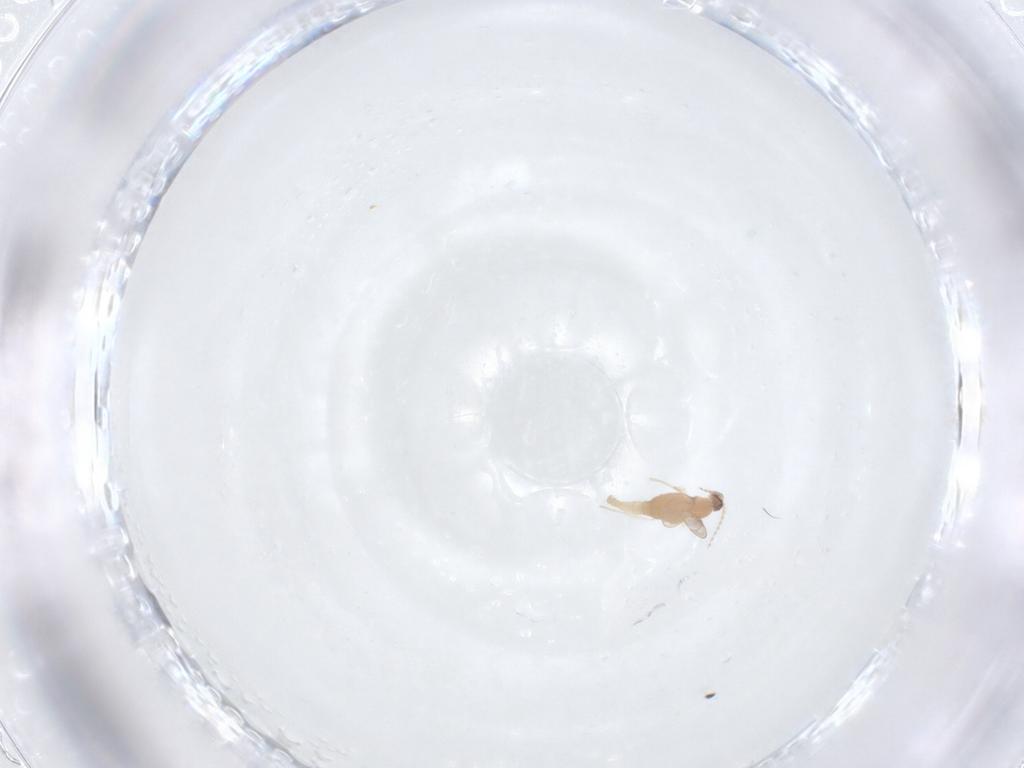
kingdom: Animalia
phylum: Arthropoda
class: Insecta
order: Diptera
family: Cecidomyiidae
